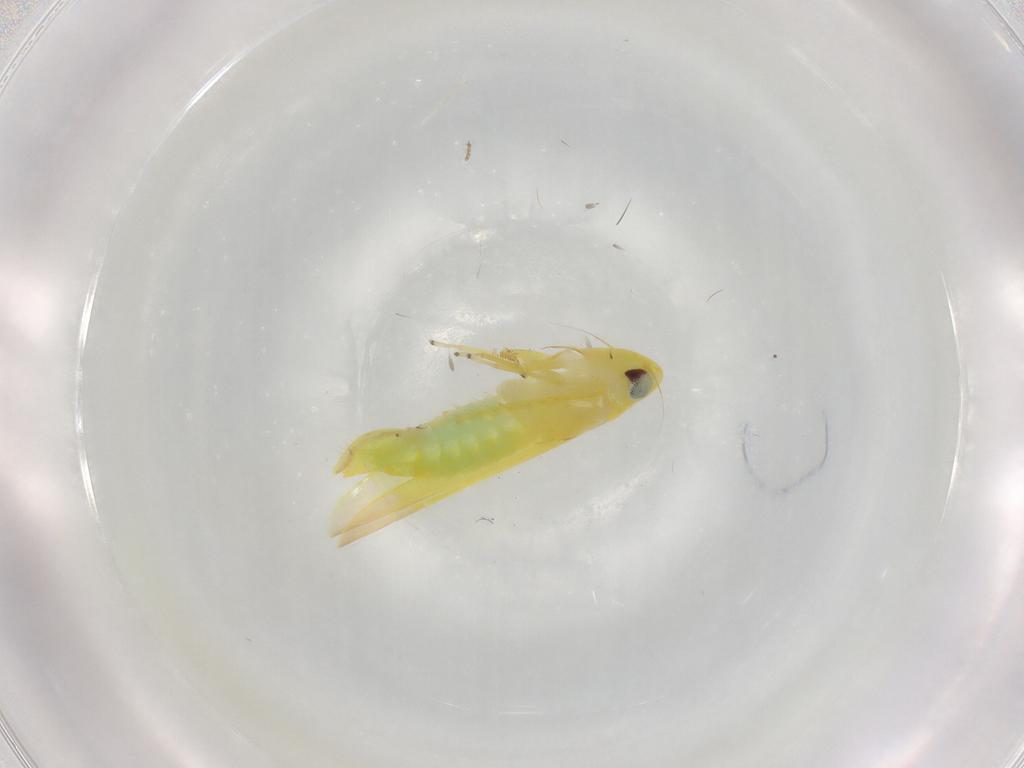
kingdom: Animalia
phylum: Arthropoda
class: Insecta
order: Hemiptera
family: Cicadellidae
